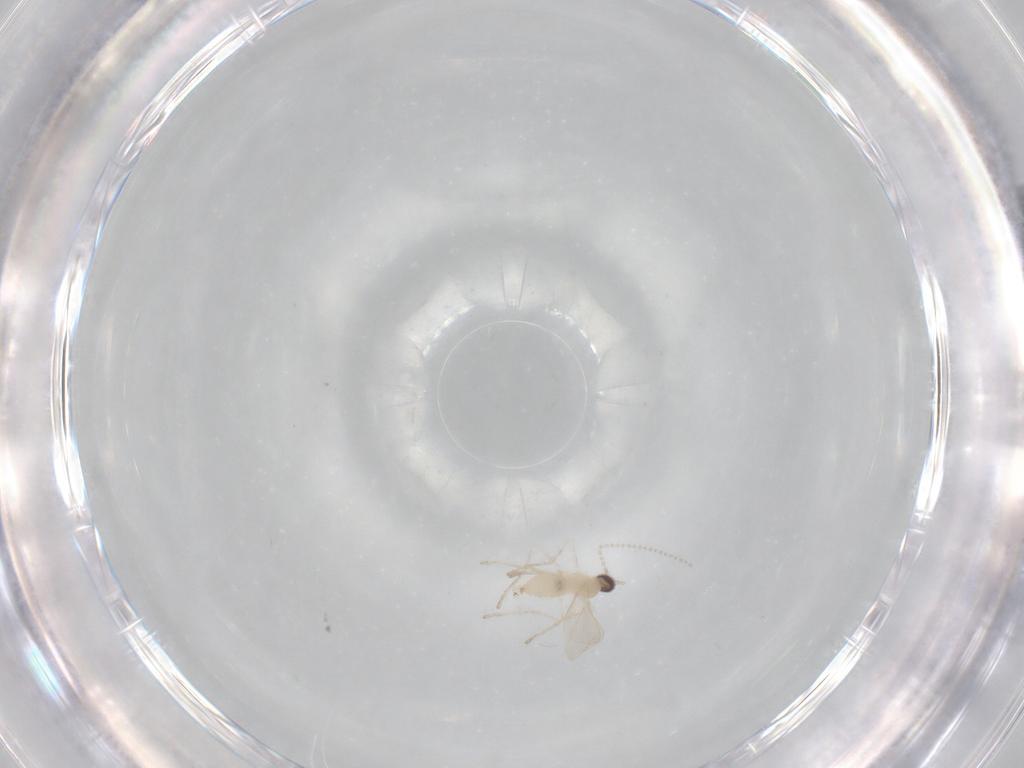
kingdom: Animalia
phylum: Arthropoda
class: Insecta
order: Diptera
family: Cecidomyiidae
